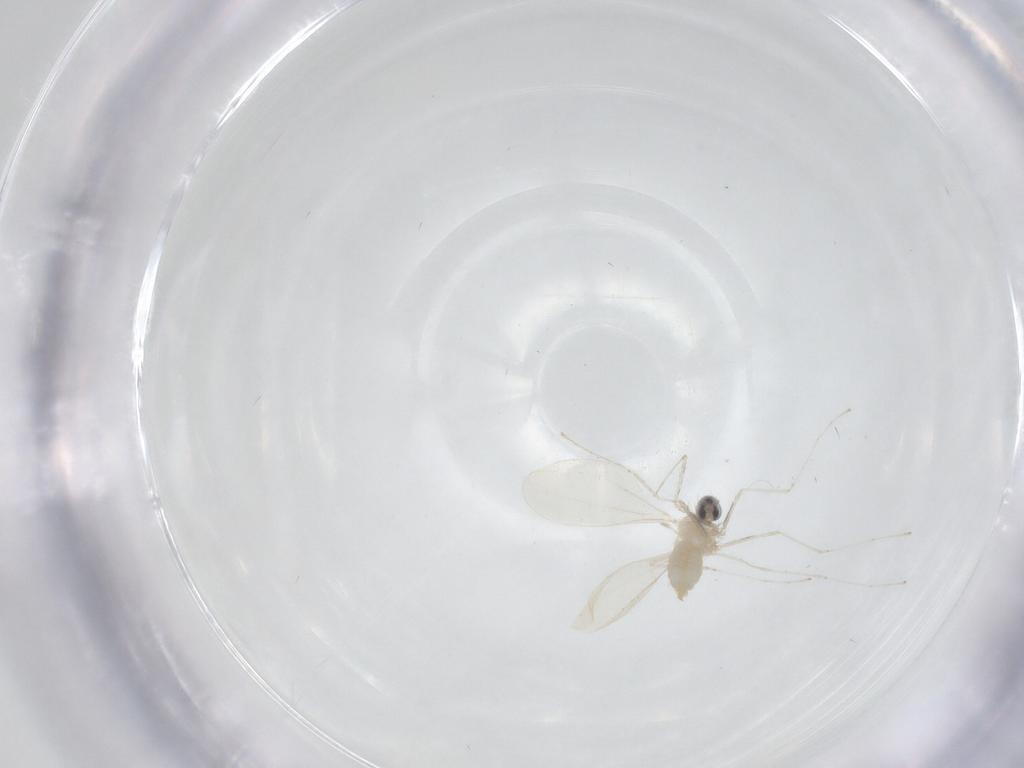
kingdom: Animalia
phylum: Arthropoda
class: Insecta
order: Diptera
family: Cecidomyiidae
